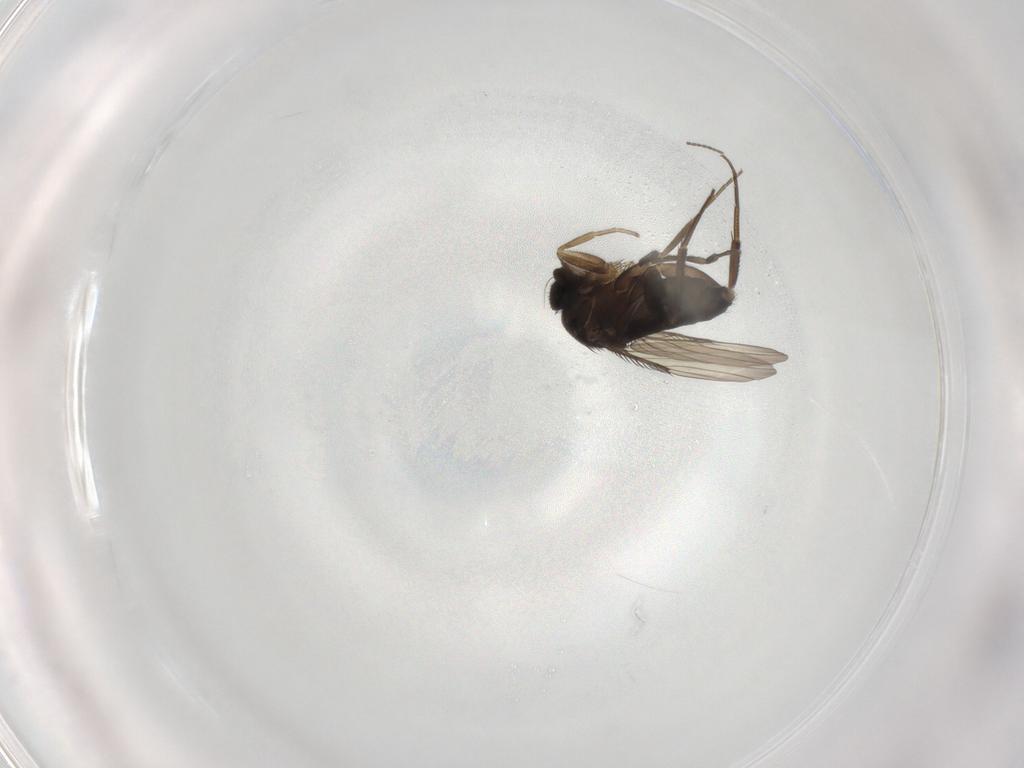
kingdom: Animalia
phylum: Arthropoda
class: Insecta
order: Diptera
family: Phoridae
